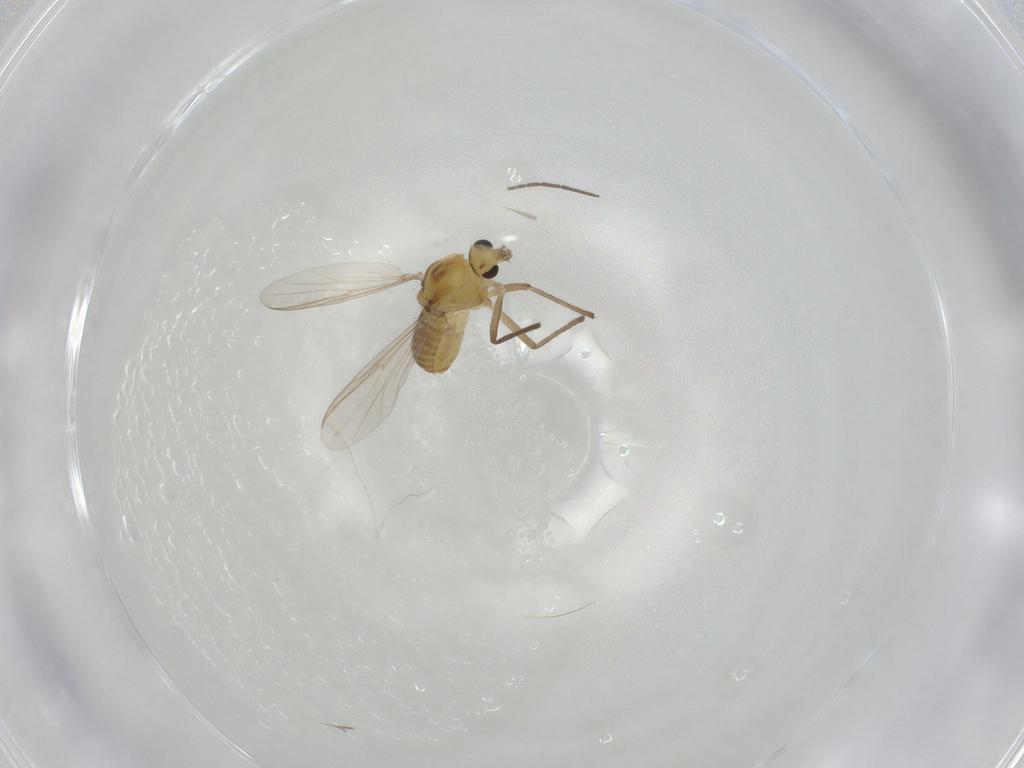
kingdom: Animalia
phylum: Arthropoda
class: Insecta
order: Diptera
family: Chironomidae
